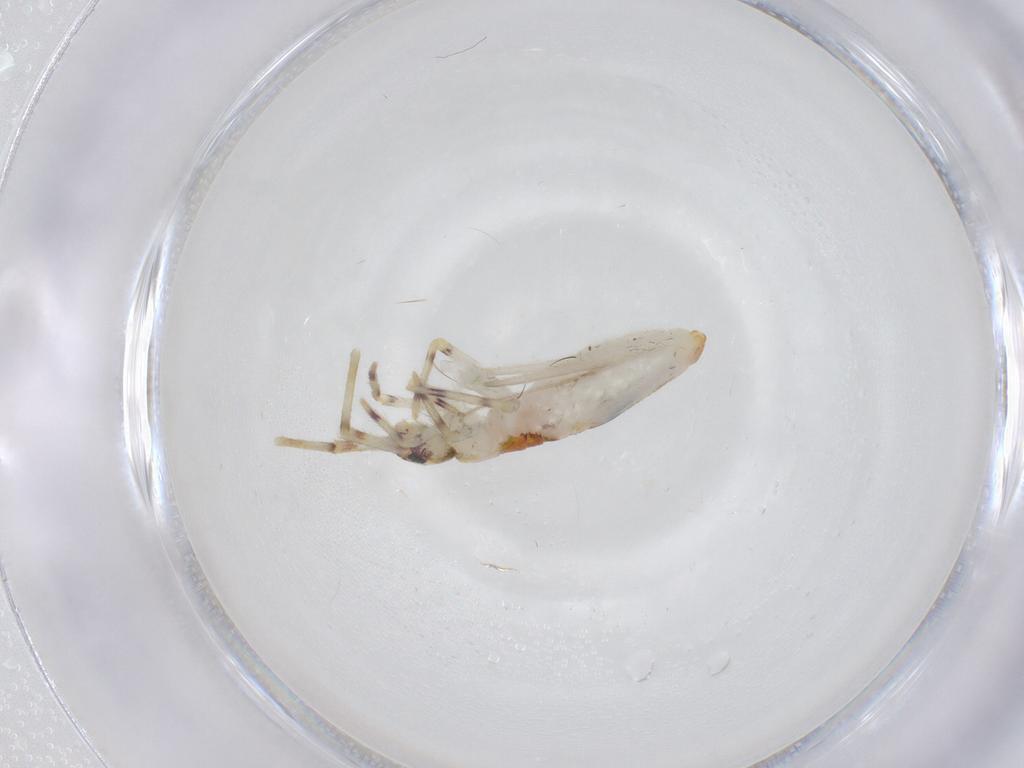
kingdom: Animalia
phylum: Arthropoda
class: Collembola
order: Entomobryomorpha
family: Entomobryidae
